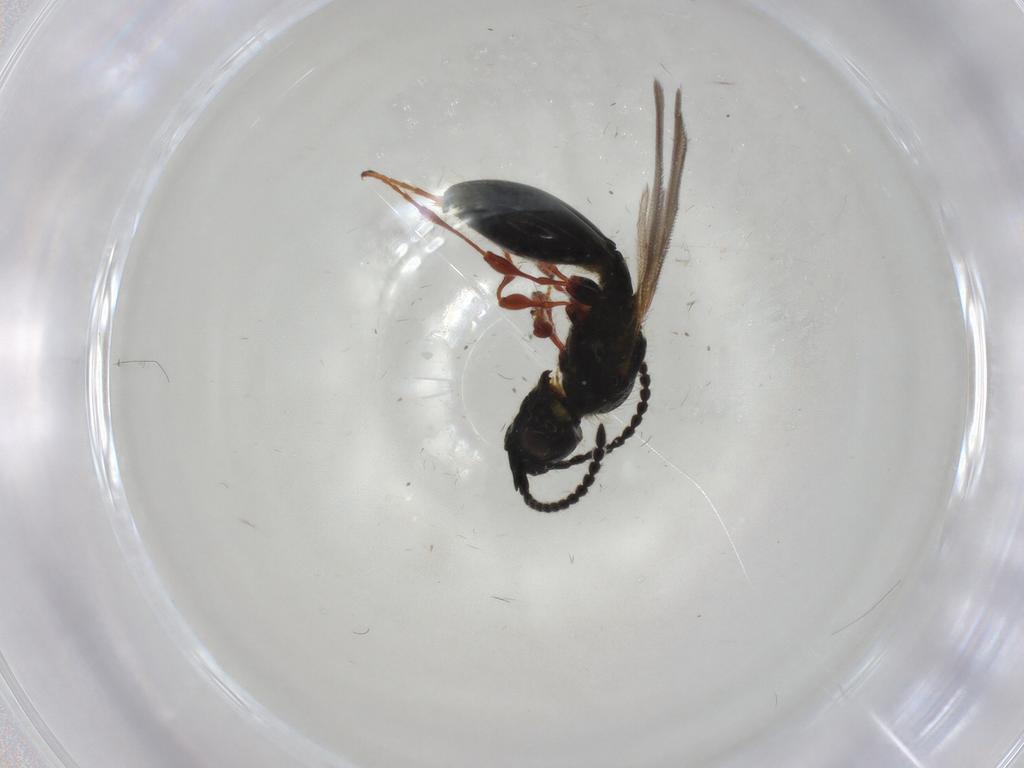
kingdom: Animalia
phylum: Arthropoda
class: Insecta
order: Hymenoptera
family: Diapriidae
